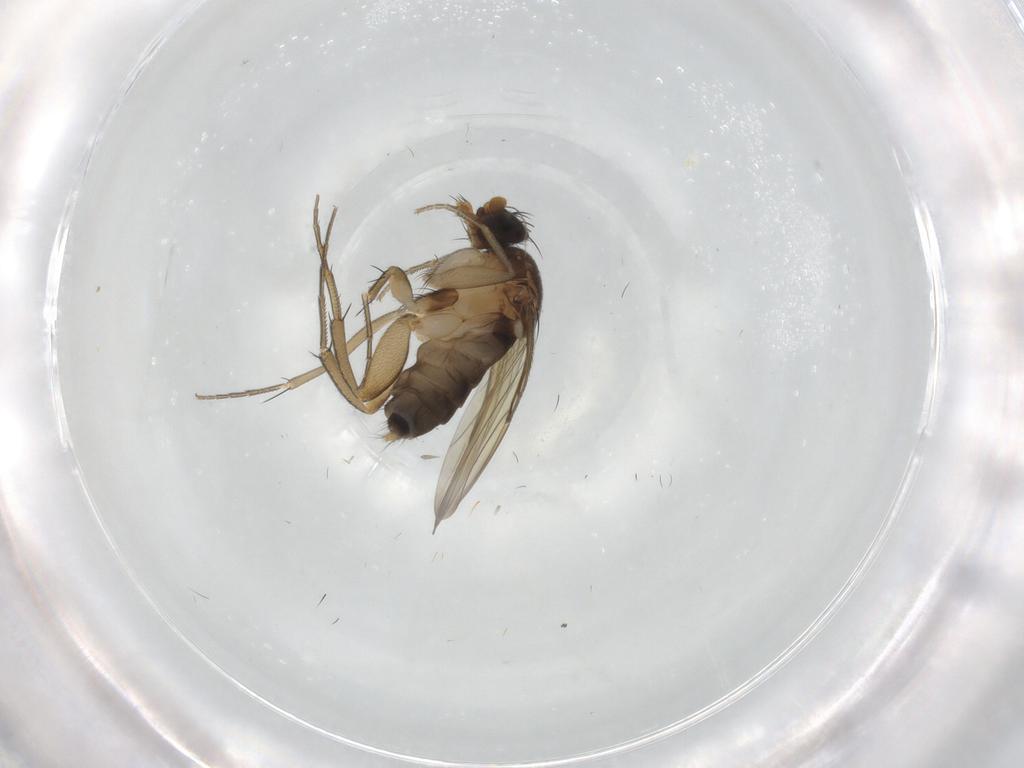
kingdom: Animalia
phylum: Arthropoda
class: Insecta
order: Diptera
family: Phoridae
